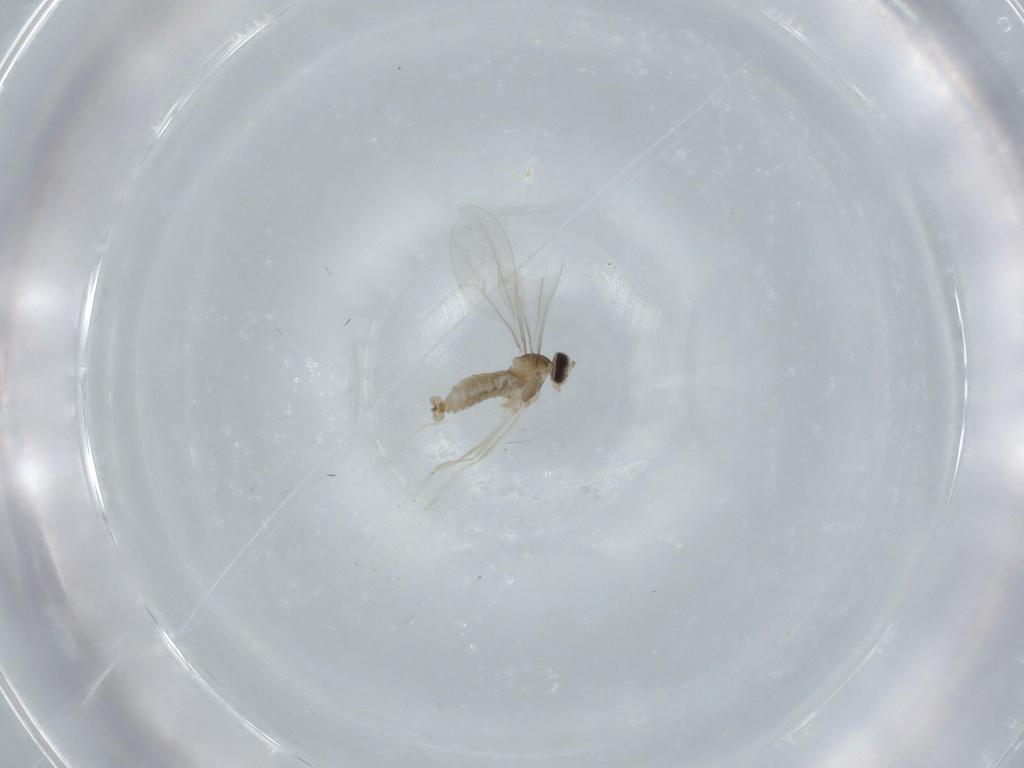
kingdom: Animalia
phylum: Arthropoda
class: Insecta
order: Diptera
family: Cecidomyiidae
